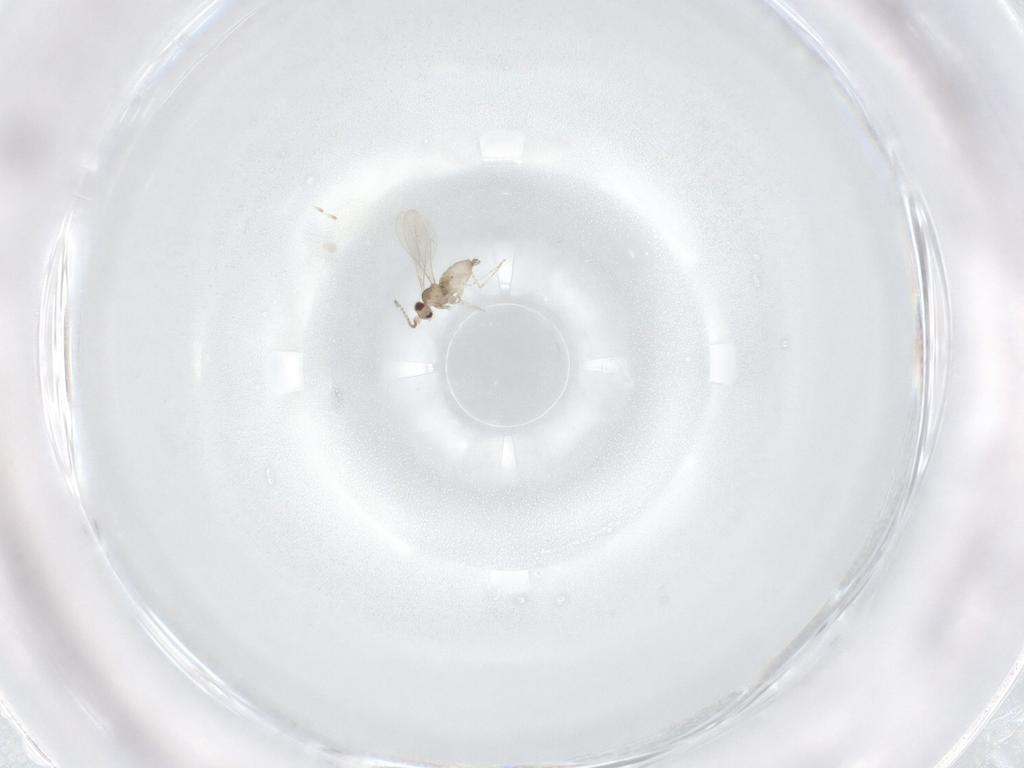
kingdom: Animalia
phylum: Arthropoda
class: Insecta
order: Diptera
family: Cecidomyiidae
